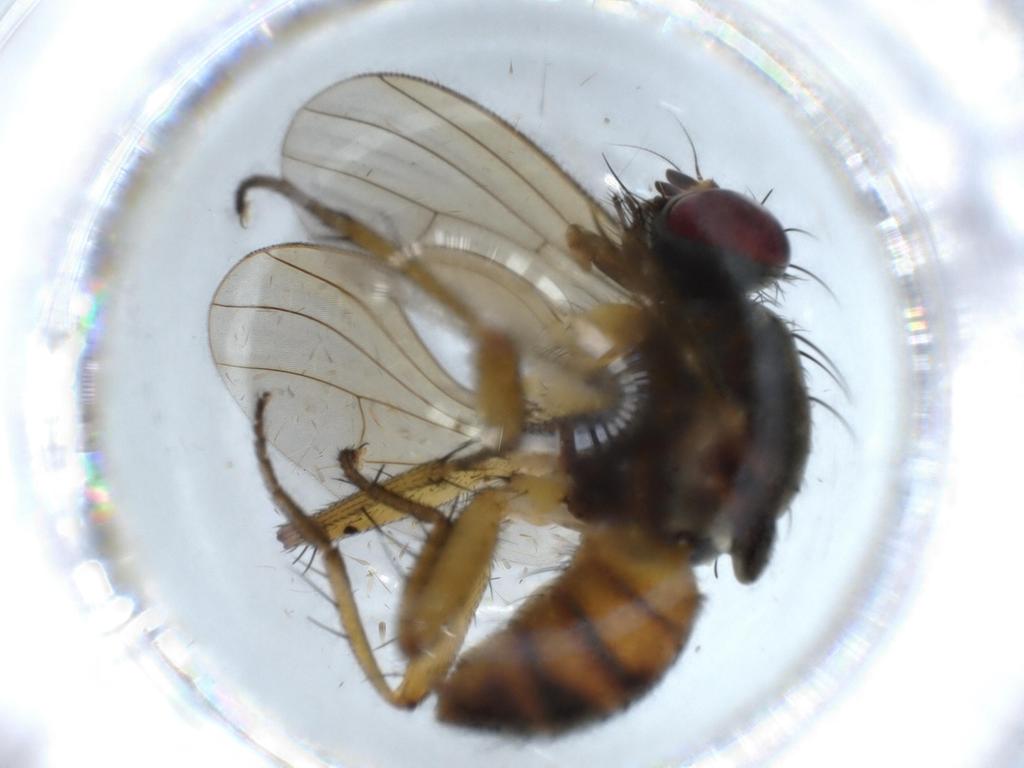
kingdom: Animalia
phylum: Arthropoda
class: Insecta
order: Diptera
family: Muscidae
